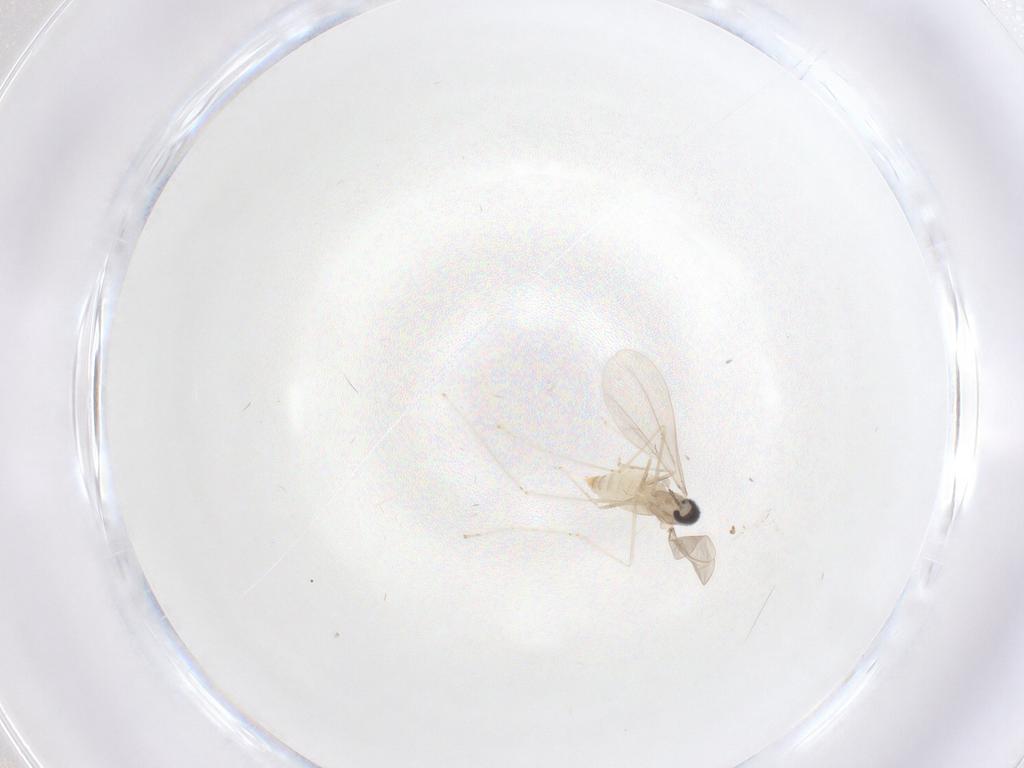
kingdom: Animalia
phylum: Arthropoda
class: Insecta
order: Diptera
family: Cecidomyiidae
